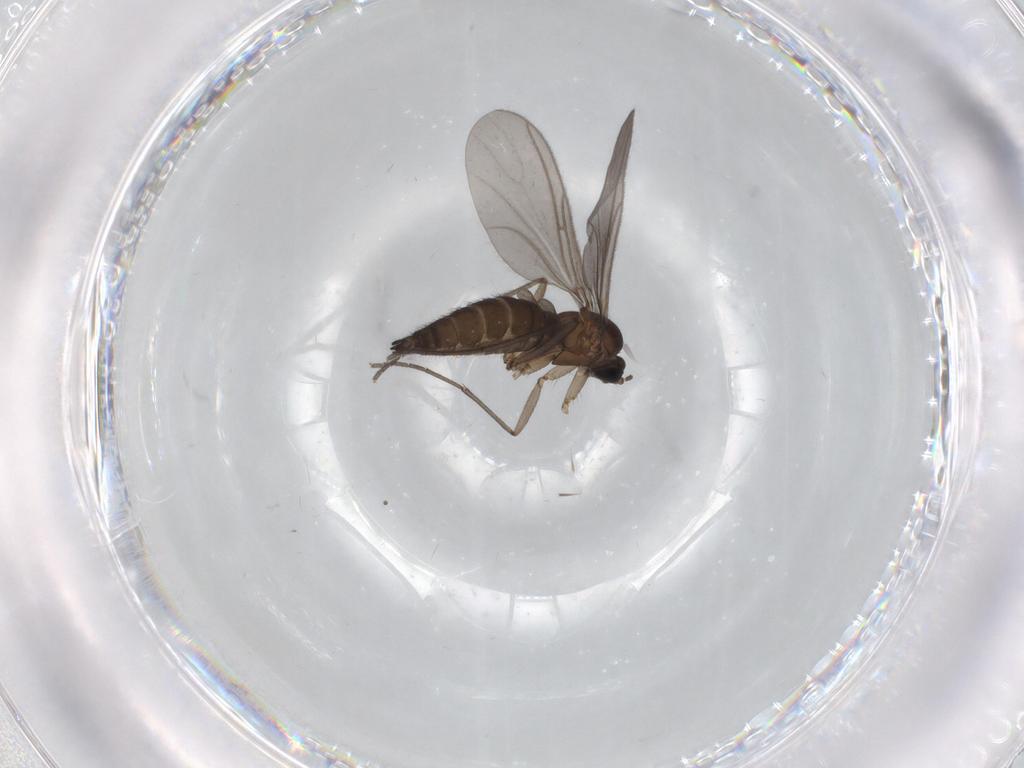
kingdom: Animalia
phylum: Arthropoda
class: Insecta
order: Diptera
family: Sciaridae
